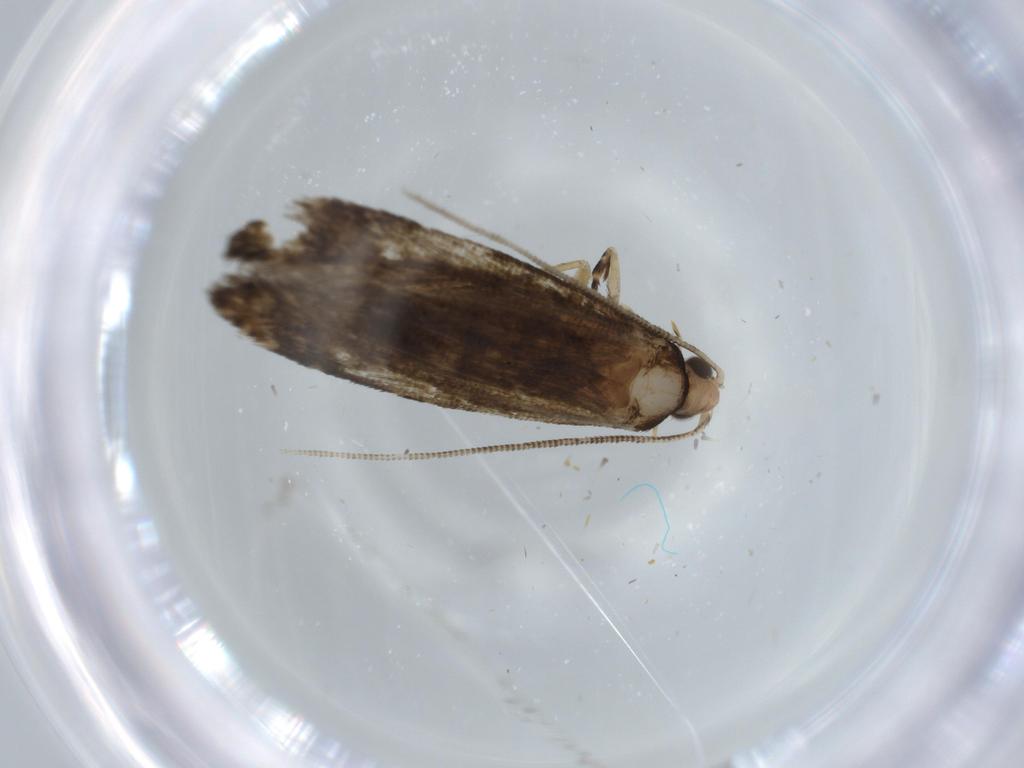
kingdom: Animalia
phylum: Arthropoda
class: Insecta
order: Lepidoptera
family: Meessiidae
